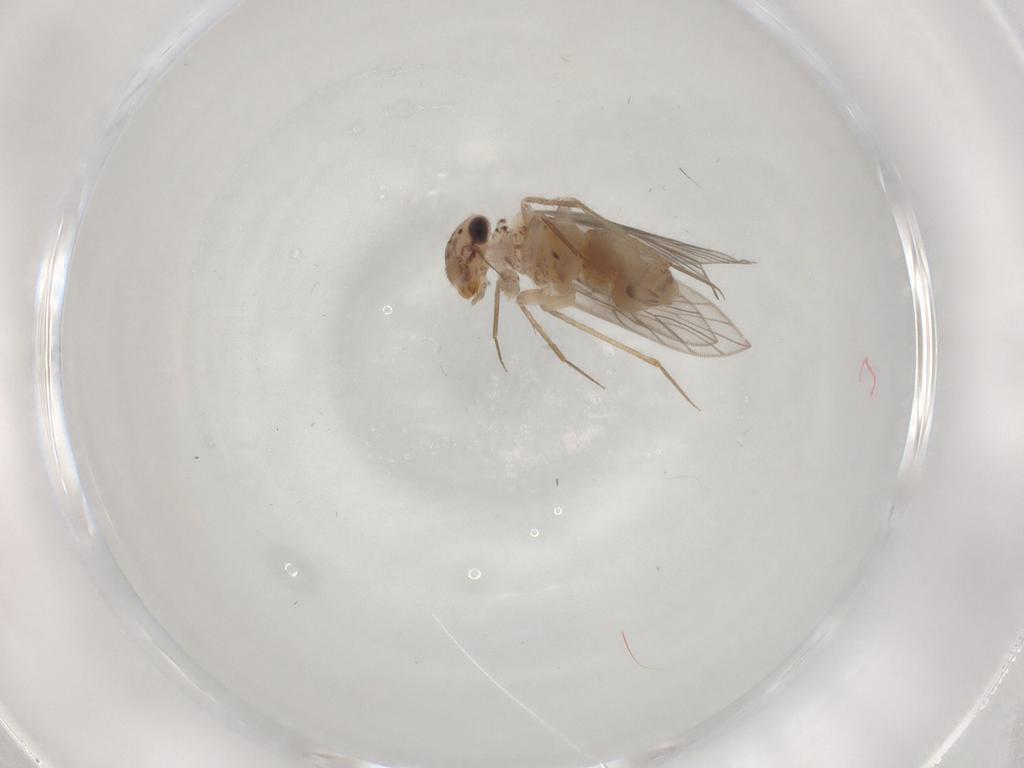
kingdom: Animalia
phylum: Arthropoda
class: Insecta
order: Psocodea
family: Lepidopsocidae
